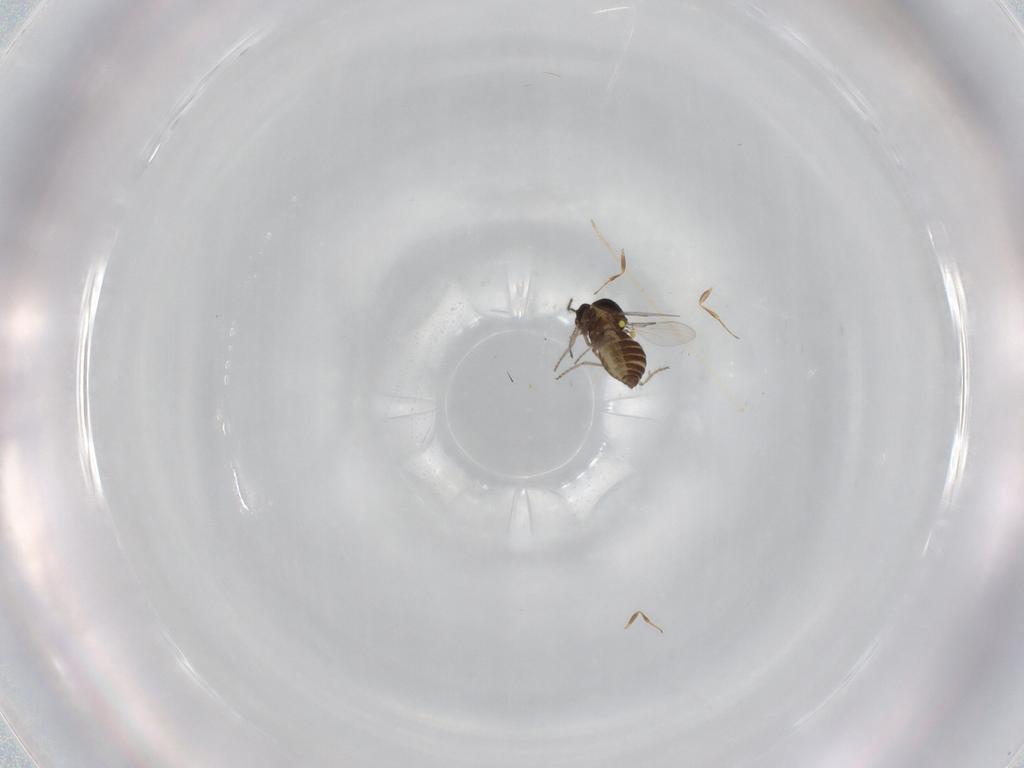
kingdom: Animalia
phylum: Arthropoda
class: Insecta
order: Diptera
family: Ceratopogonidae
